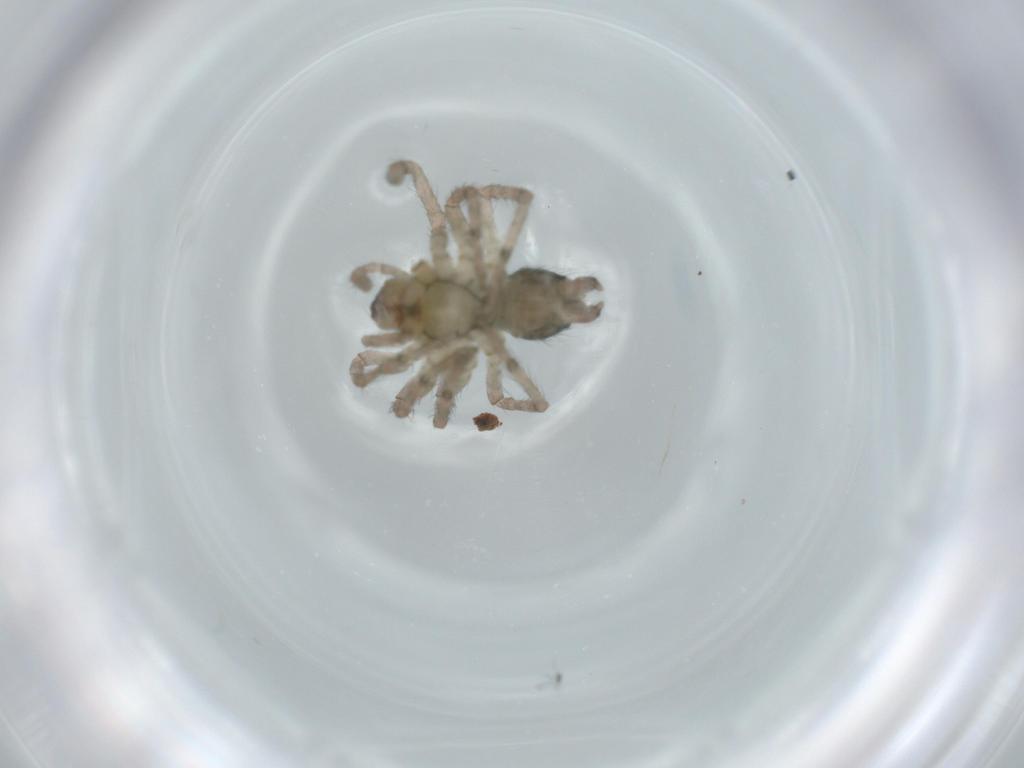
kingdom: Animalia
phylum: Arthropoda
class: Arachnida
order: Araneae
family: Agelenidae
